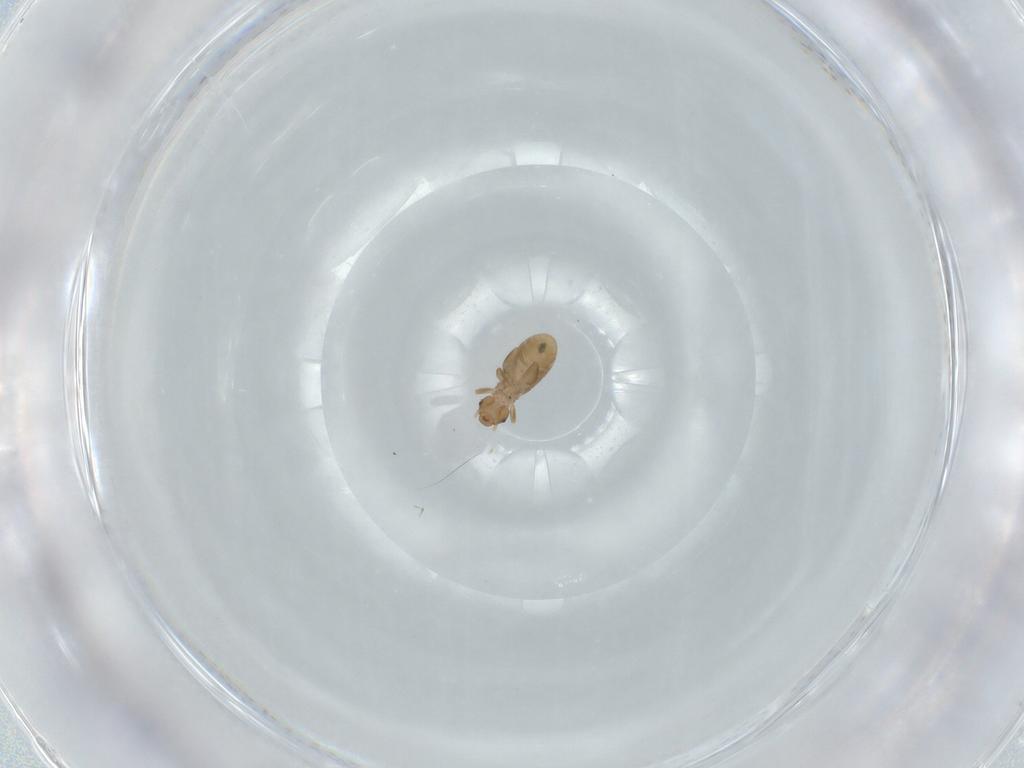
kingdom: Animalia
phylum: Arthropoda
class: Insecta
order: Psocodea
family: Liposcelididae
